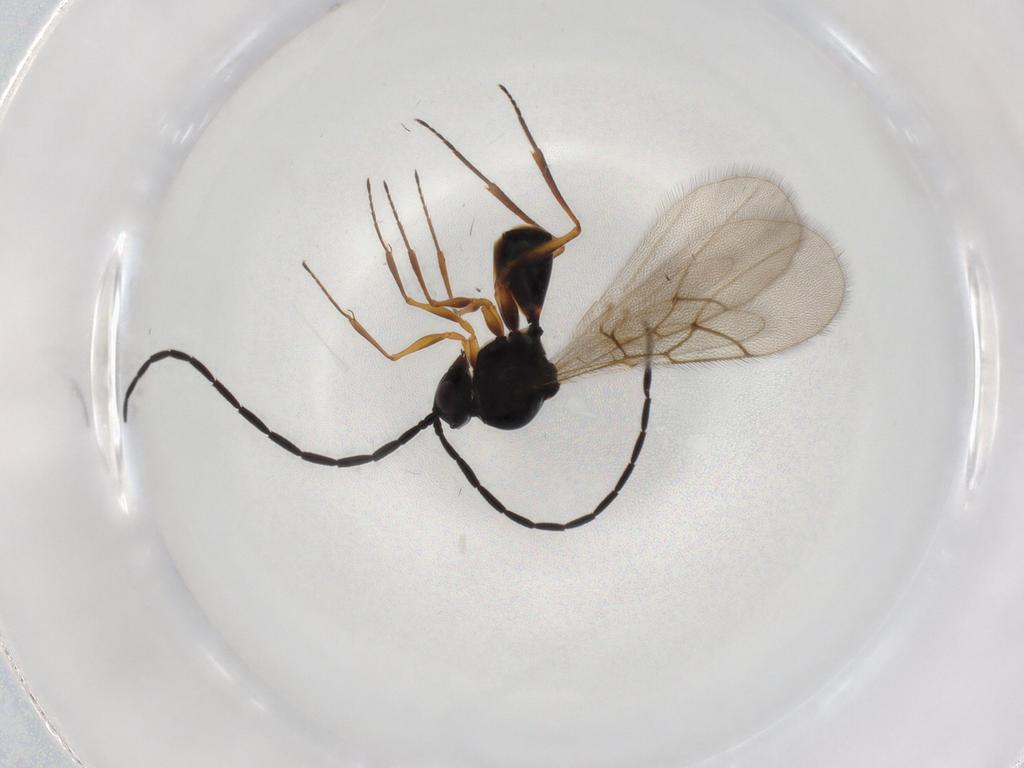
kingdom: Animalia
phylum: Arthropoda
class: Insecta
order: Hymenoptera
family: Figitidae
